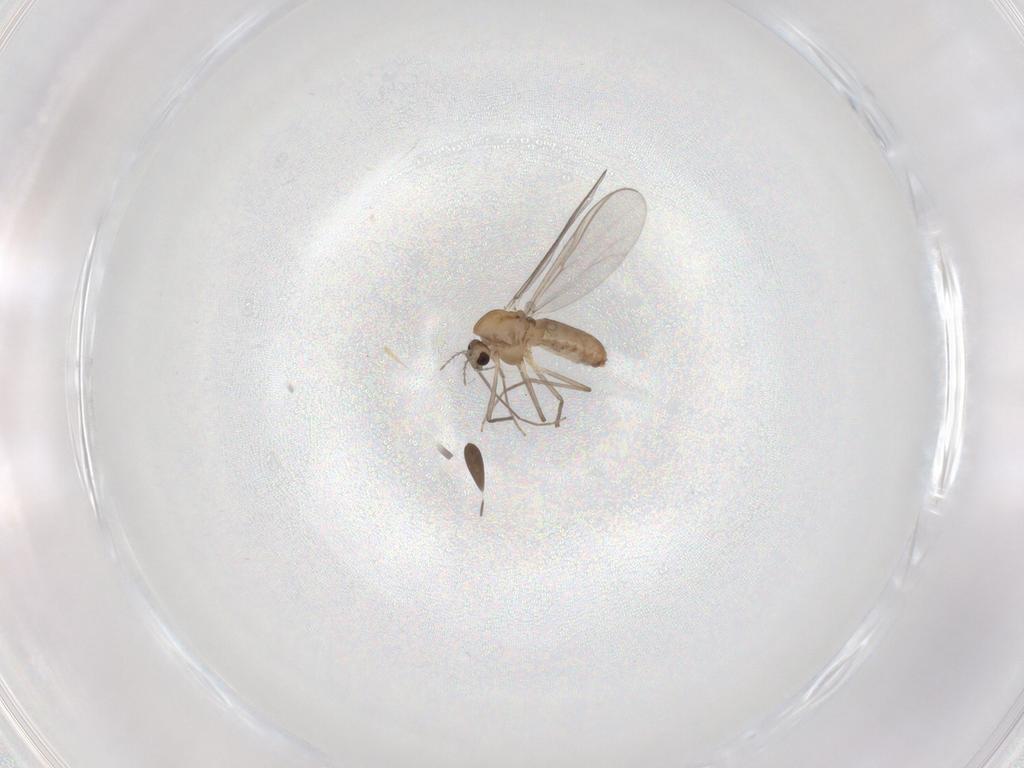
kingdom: Animalia
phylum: Arthropoda
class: Insecta
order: Diptera
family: Chironomidae
